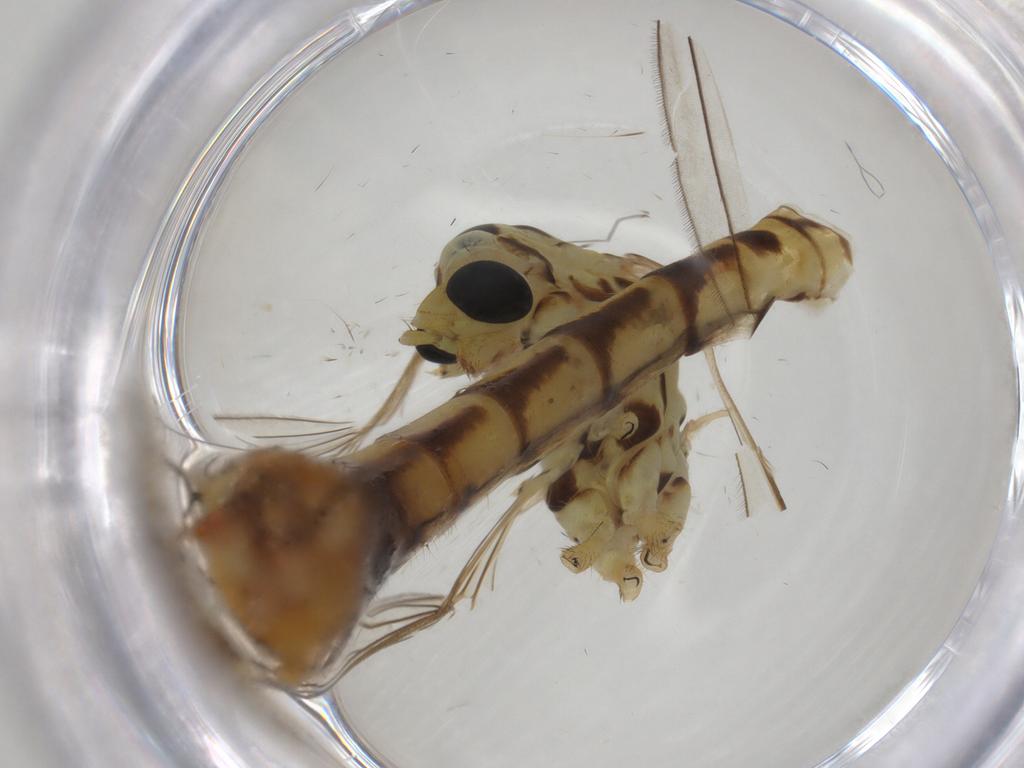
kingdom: Animalia
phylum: Arthropoda
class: Insecta
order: Diptera
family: Tipulidae
